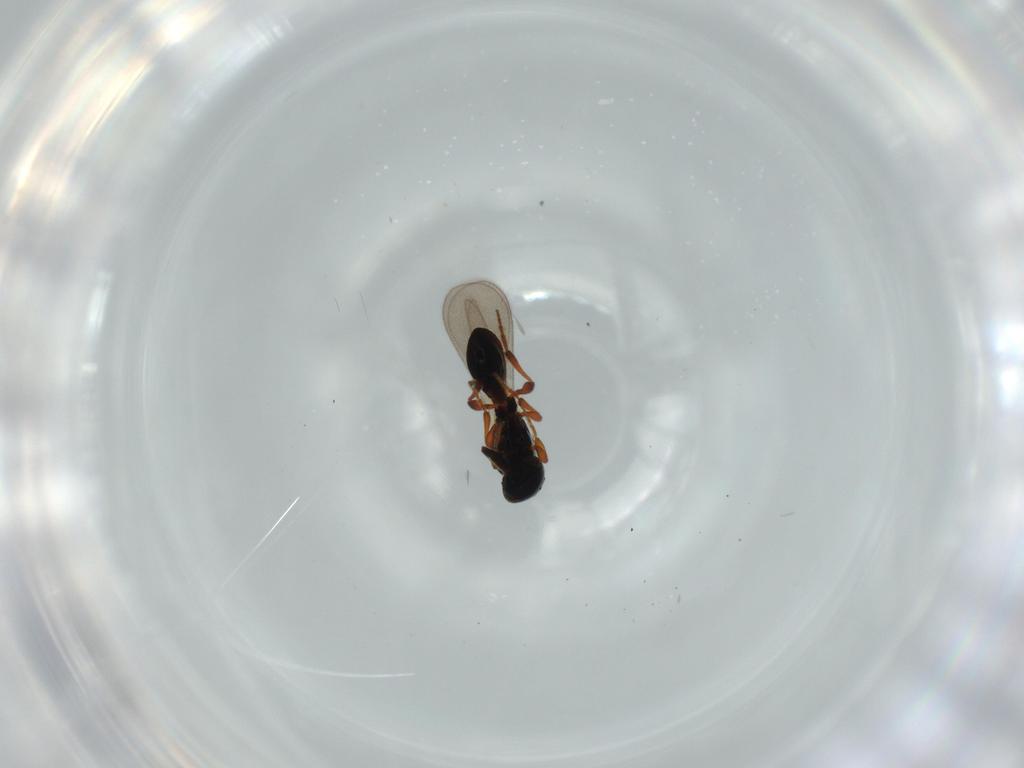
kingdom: Animalia
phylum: Arthropoda
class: Insecta
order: Hymenoptera
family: Platygastridae
